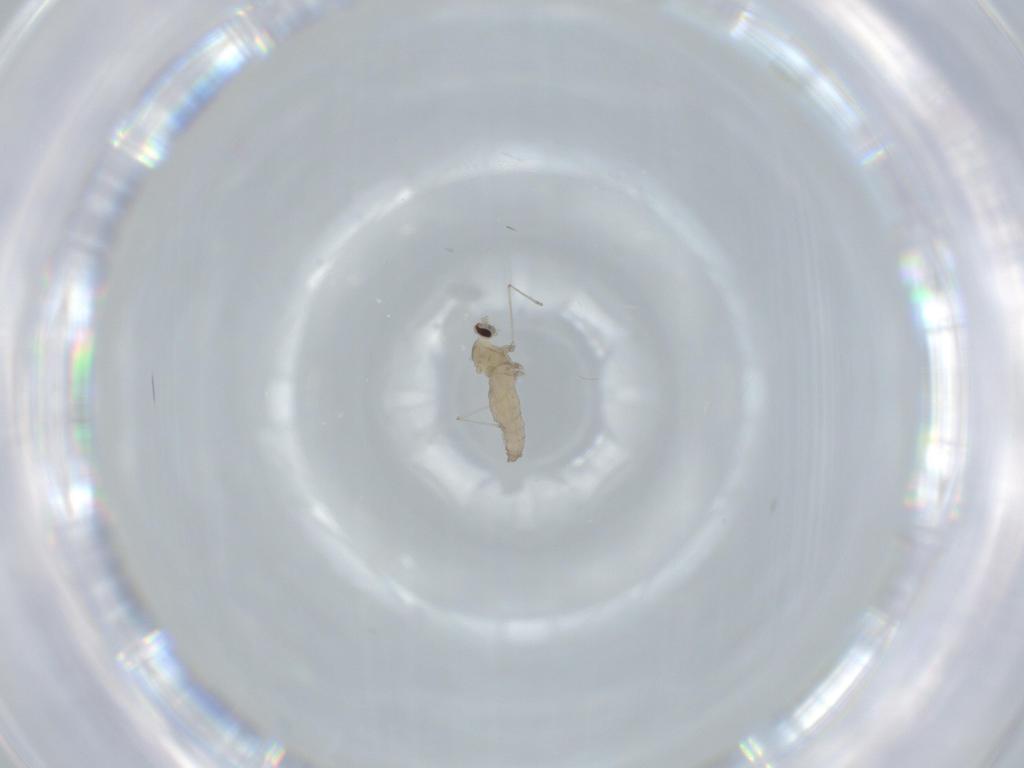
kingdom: Animalia
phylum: Arthropoda
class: Insecta
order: Diptera
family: Cecidomyiidae
